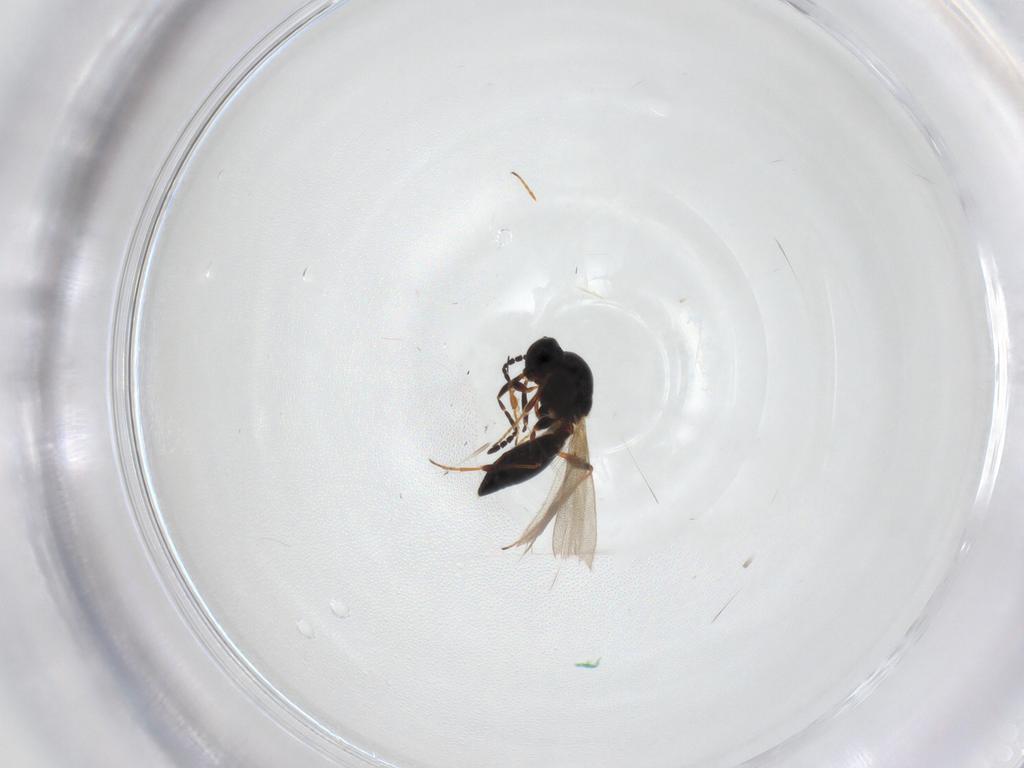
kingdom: Animalia
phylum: Arthropoda
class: Insecta
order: Hymenoptera
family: Platygastridae
